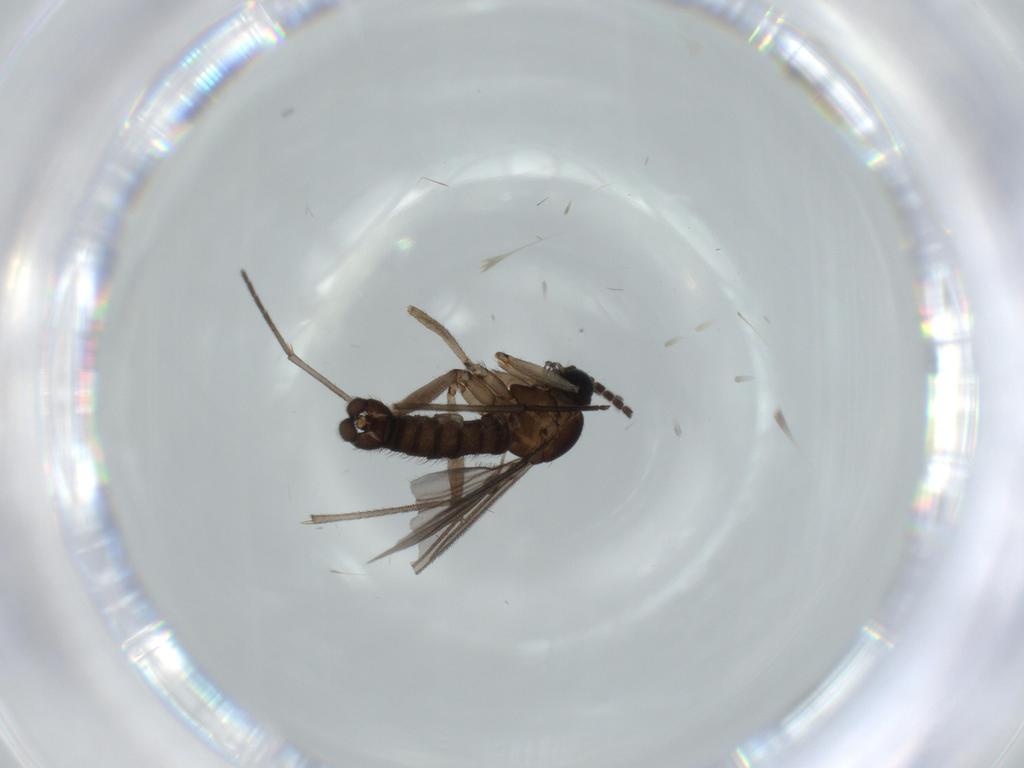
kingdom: Animalia
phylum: Arthropoda
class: Insecta
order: Diptera
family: Sciaridae
